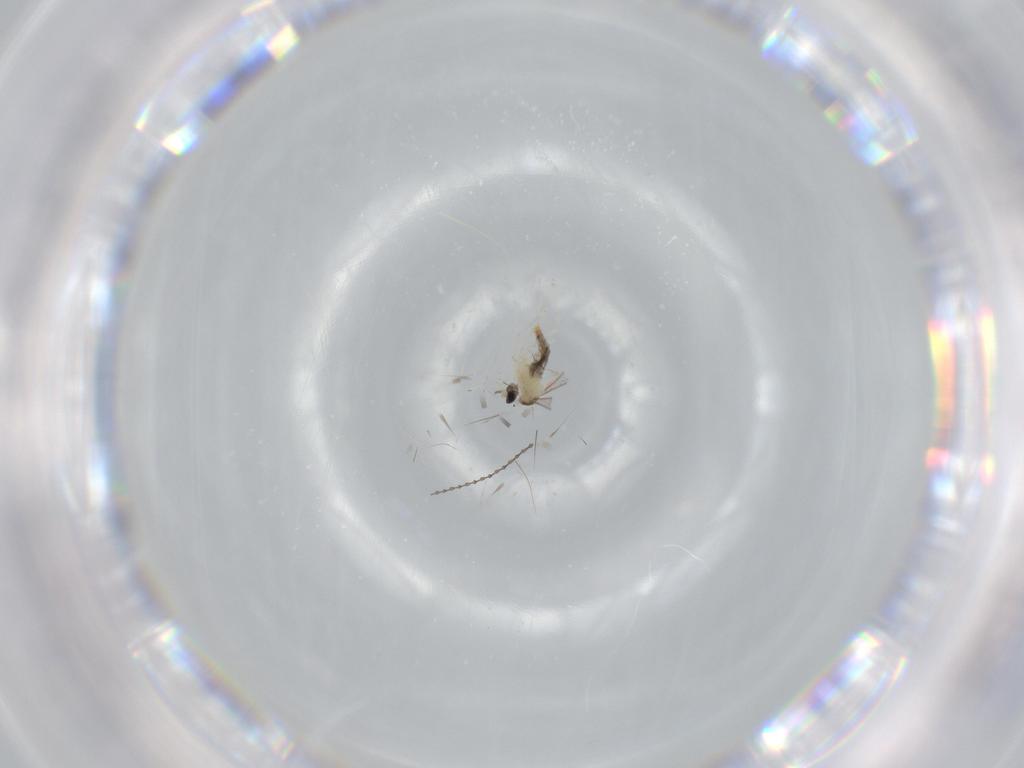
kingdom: Animalia
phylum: Arthropoda
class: Insecta
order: Diptera
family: Cecidomyiidae
